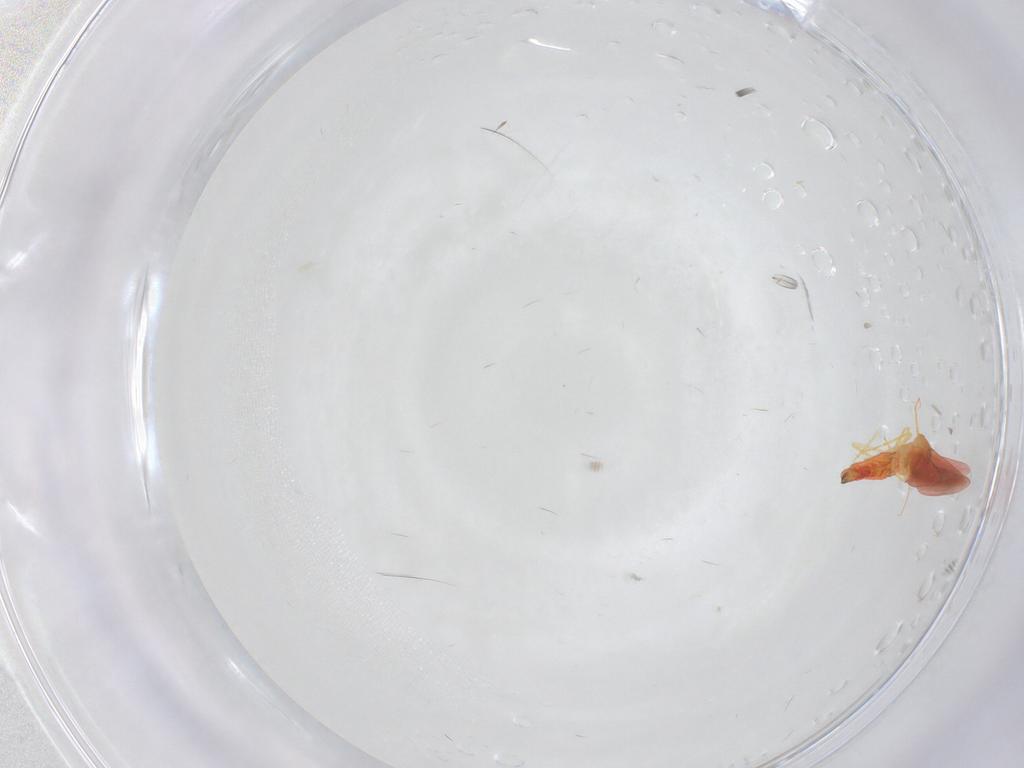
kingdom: Animalia
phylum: Arthropoda
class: Insecta
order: Hemiptera
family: Aleyrodidae
